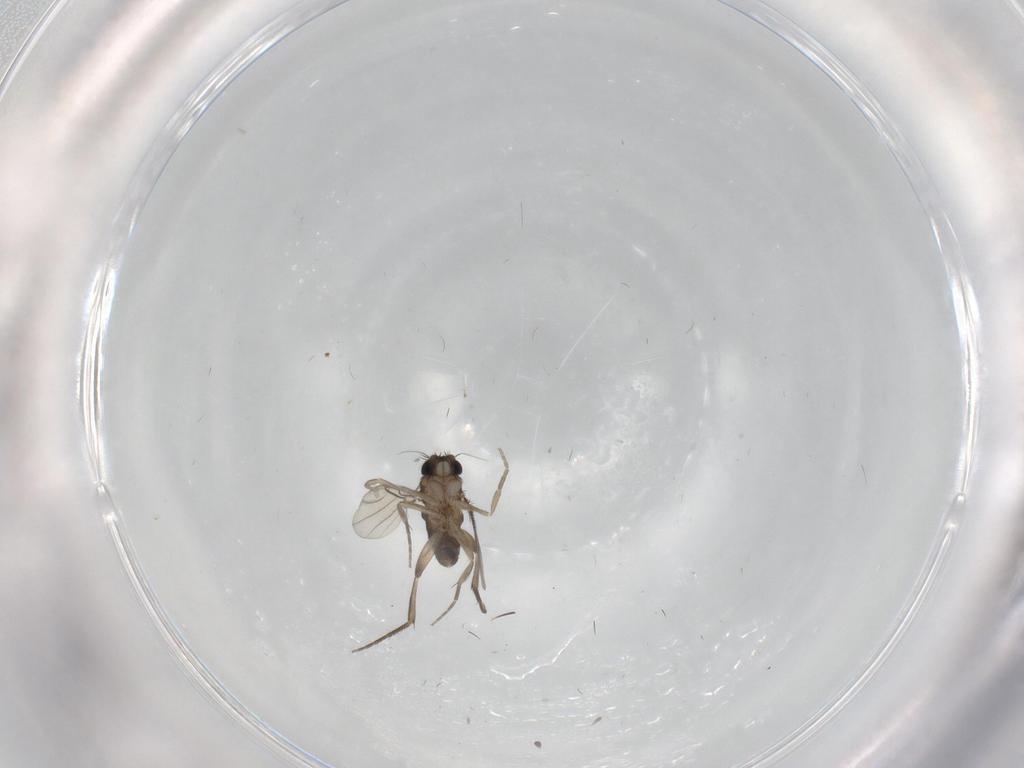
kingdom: Animalia
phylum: Arthropoda
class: Insecta
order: Diptera
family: Phoridae
